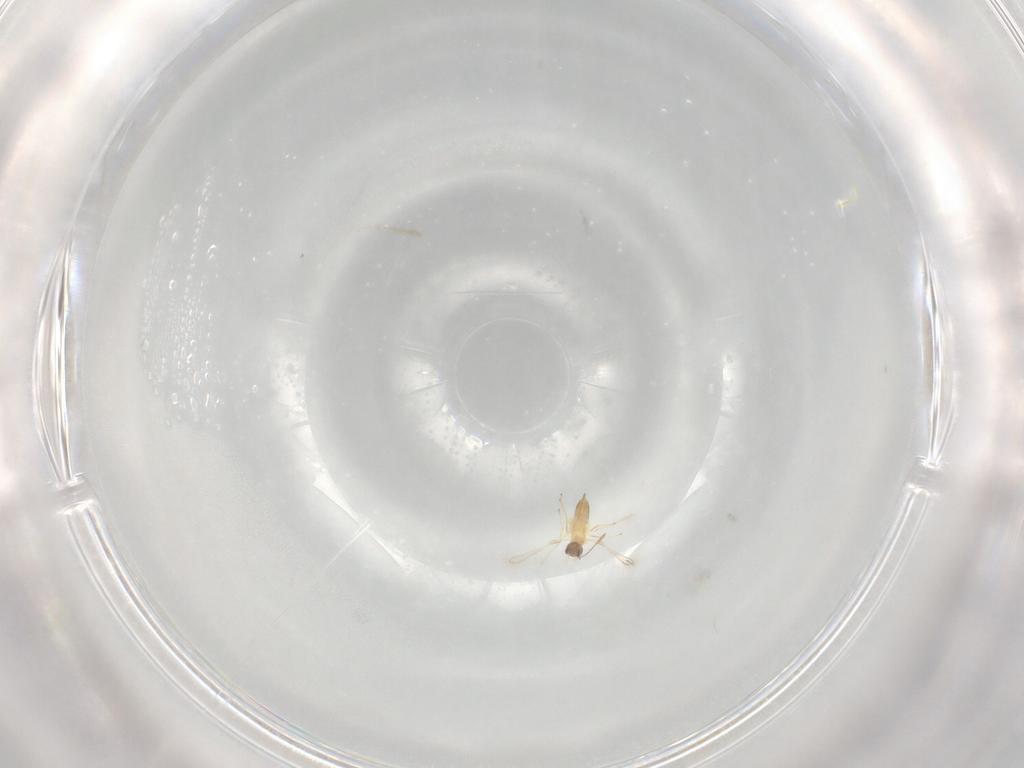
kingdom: Animalia
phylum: Arthropoda
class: Insecta
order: Hymenoptera
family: Mymaridae
